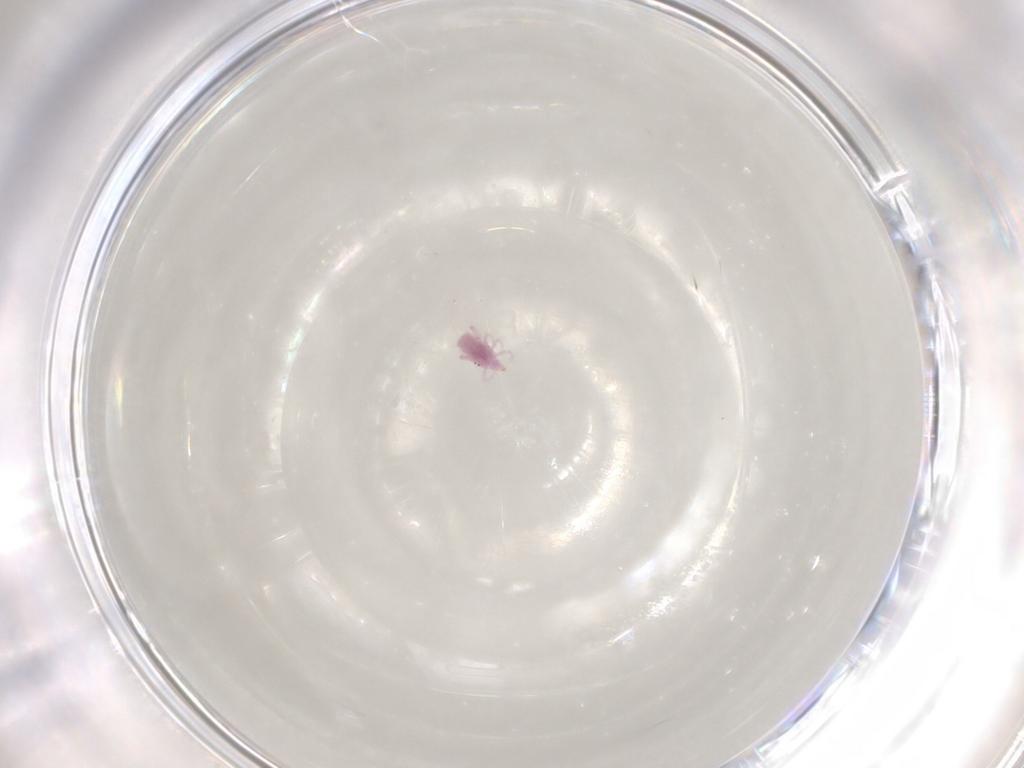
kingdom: Animalia
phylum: Arthropoda
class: Arachnida
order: Trombidiformes
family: Bdellidae
